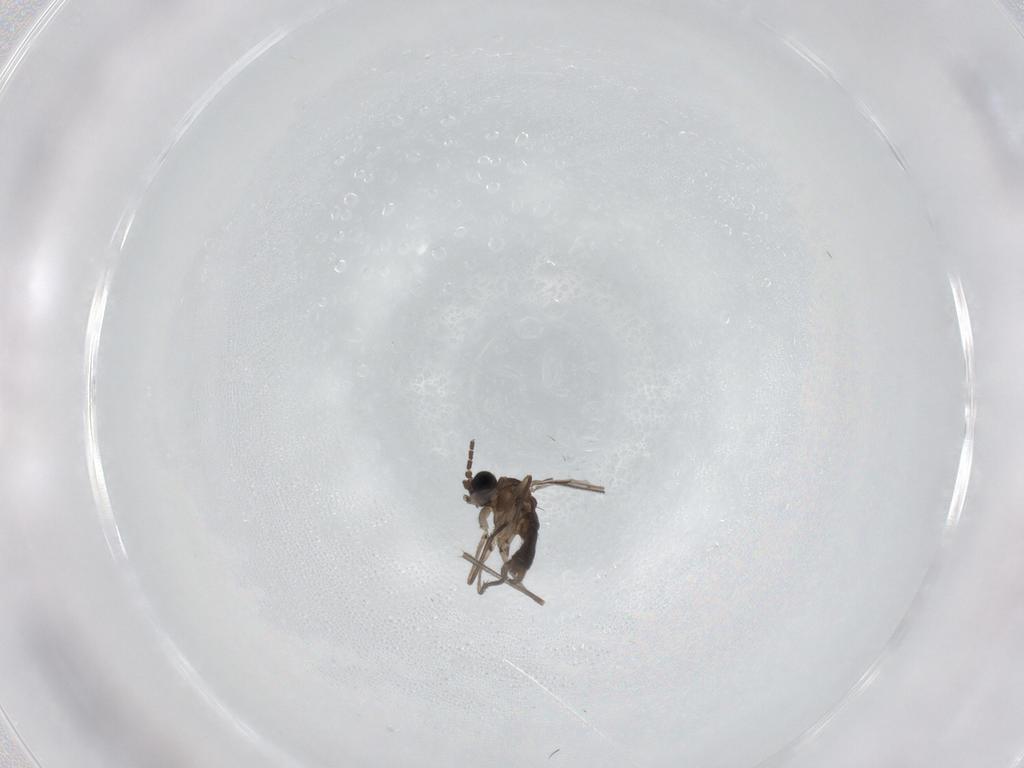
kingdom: Animalia
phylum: Arthropoda
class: Insecta
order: Diptera
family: Sciaridae
